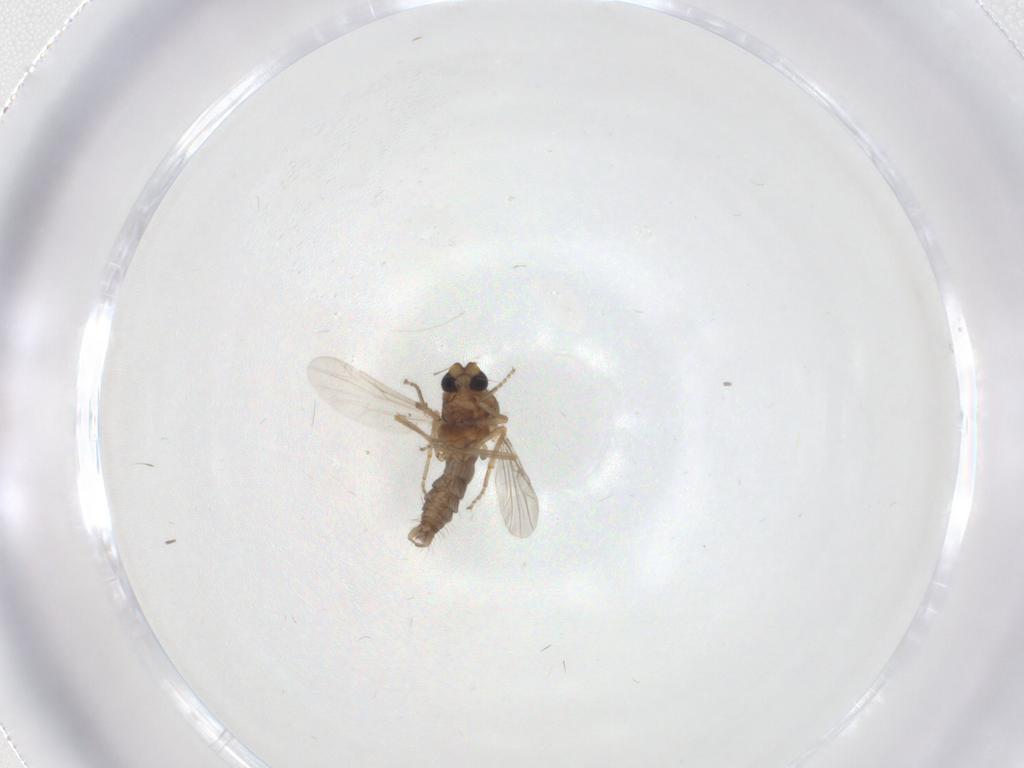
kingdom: Animalia
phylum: Arthropoda
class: Insecta
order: Diptera
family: Ceratopogonidae
